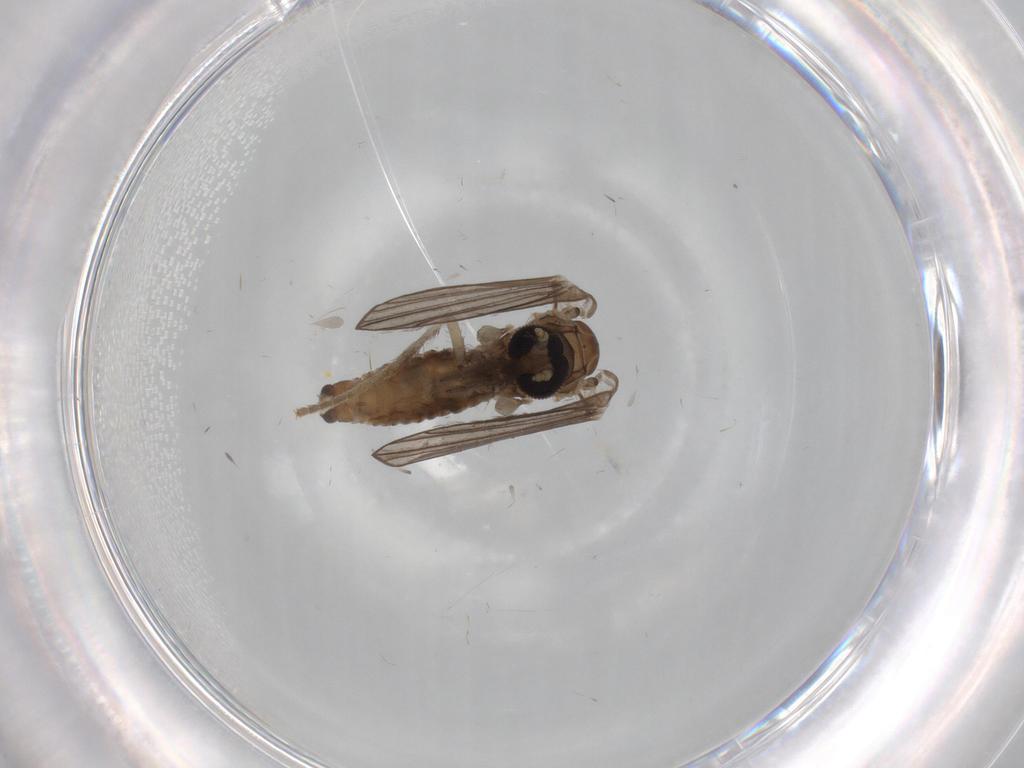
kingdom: Animalia
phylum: Arthropoda
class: Insecta
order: Diptera
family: Drosophilidae
